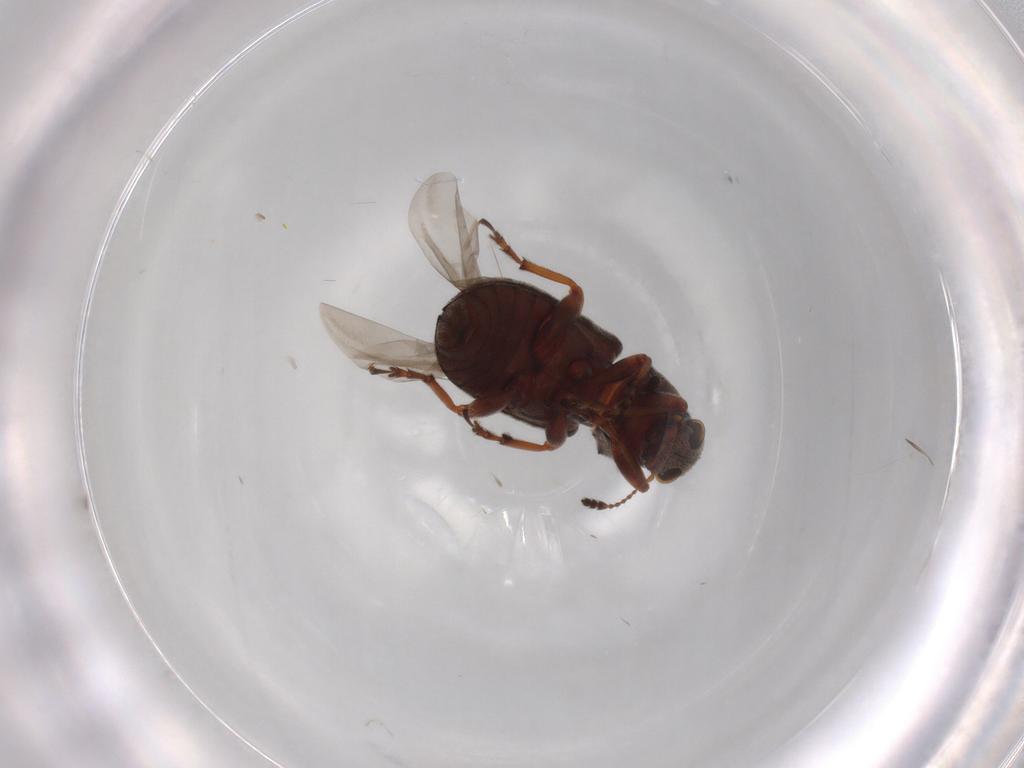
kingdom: Animalia
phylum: Arthropoda
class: Insecta
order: Coleoptera
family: Anthribidae
